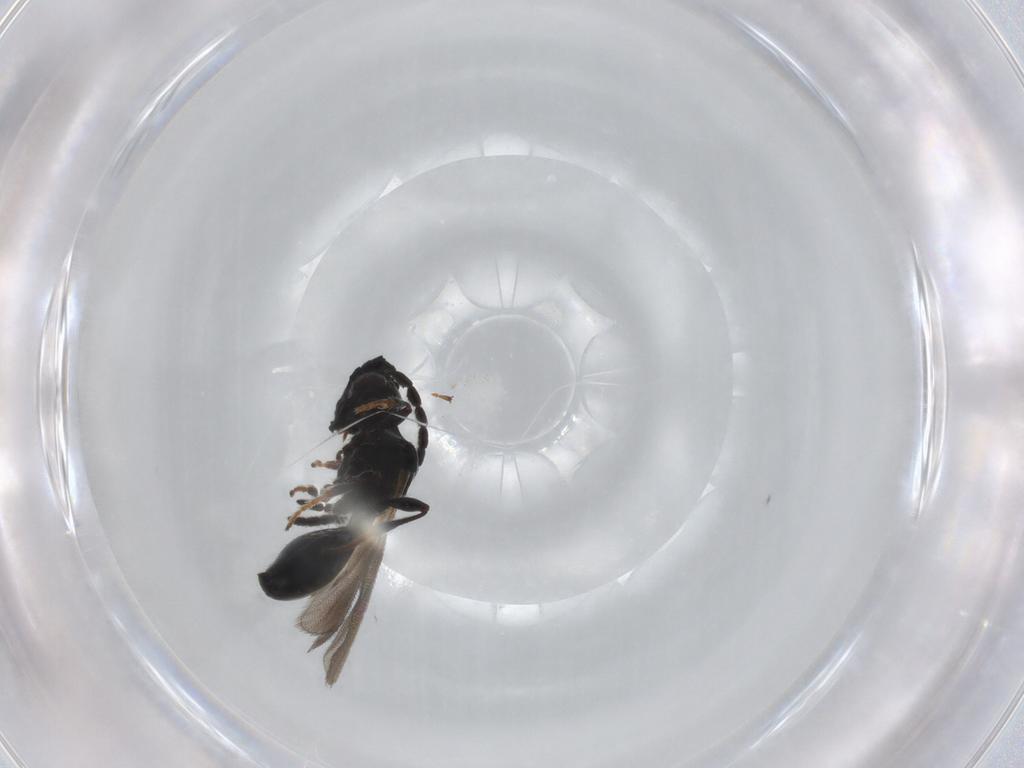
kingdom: Animalia
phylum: Arthropoda
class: Insecta
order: Hymenoptera
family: Diapriidae
